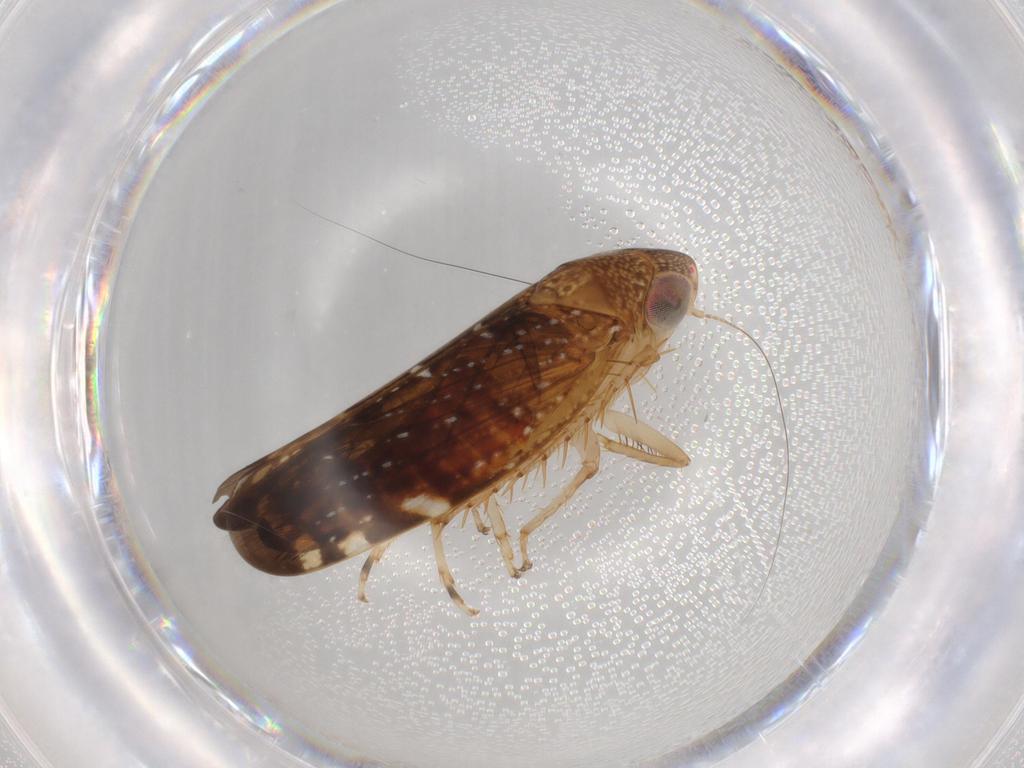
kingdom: Animalia
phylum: Arthropoda
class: Insecta
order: Hemiptera
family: Cicadellidae
